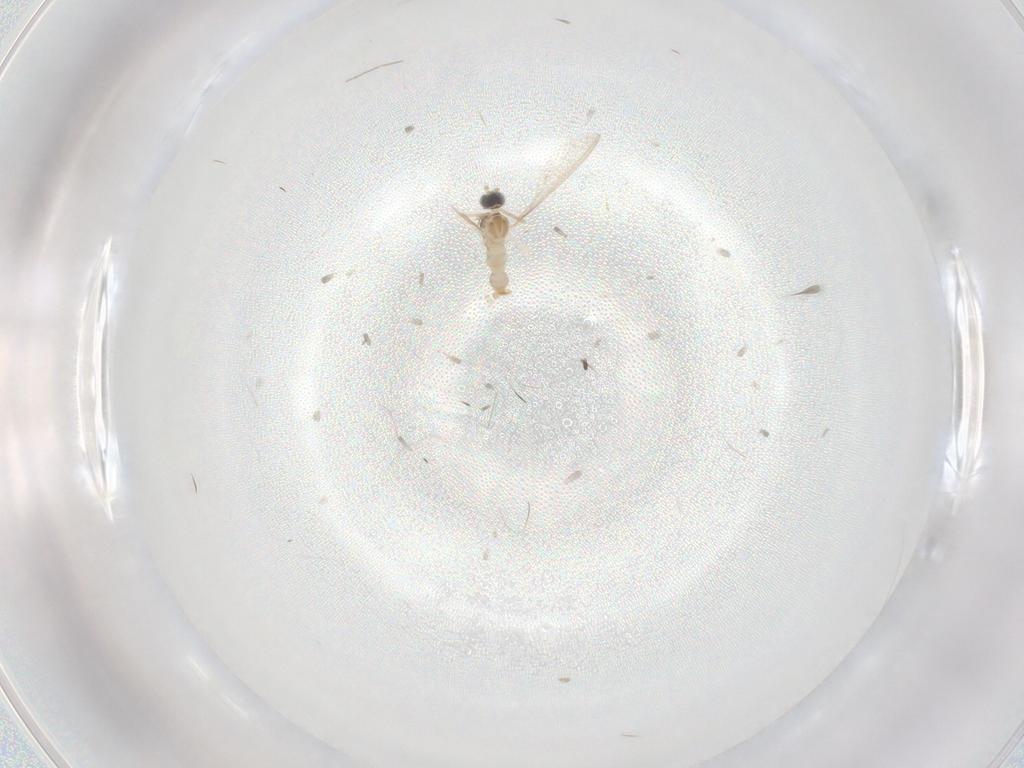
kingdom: Animalia
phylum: Arthropoda
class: Insecta
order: Diptera
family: Cecidomyiidae
